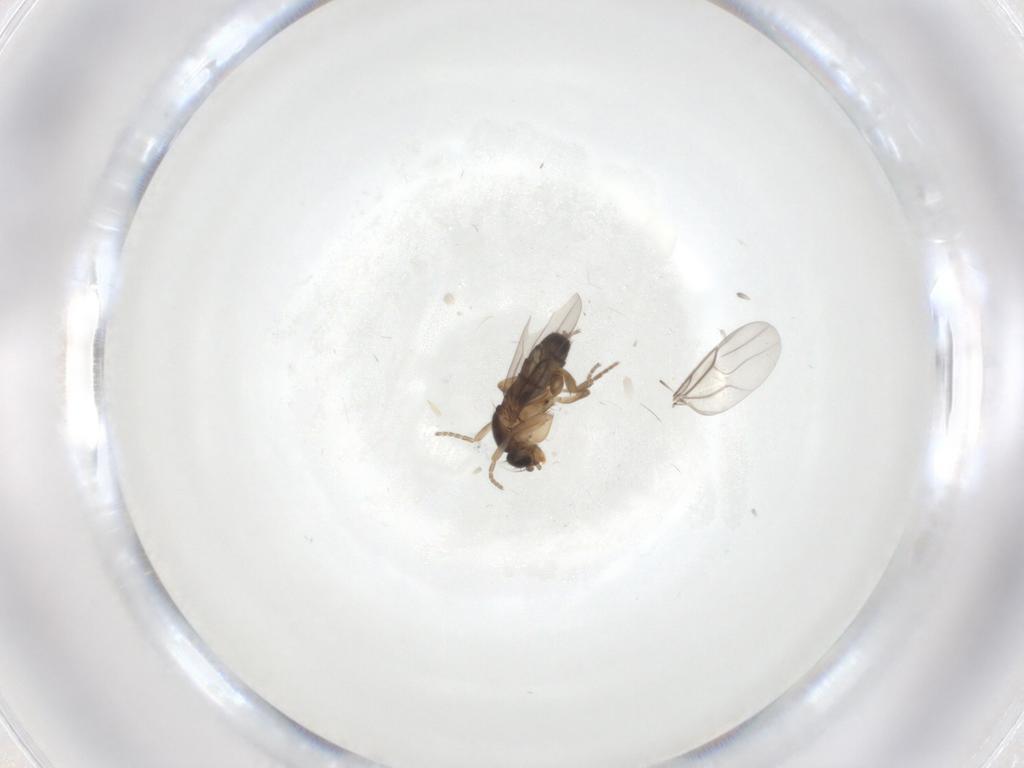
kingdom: Animalia
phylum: Arthropoda
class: Insecta
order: Diptera
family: Phoridae
